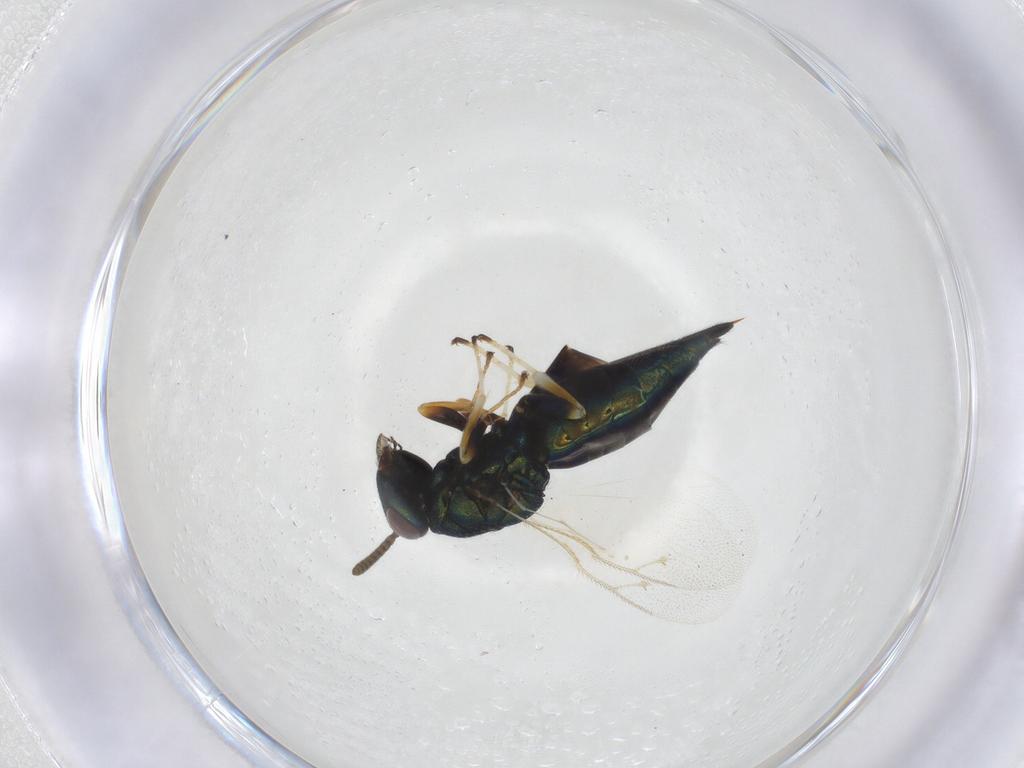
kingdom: Animalia
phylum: Arthropoda
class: Insecta
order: Hymenoptera
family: Pteromalidae
